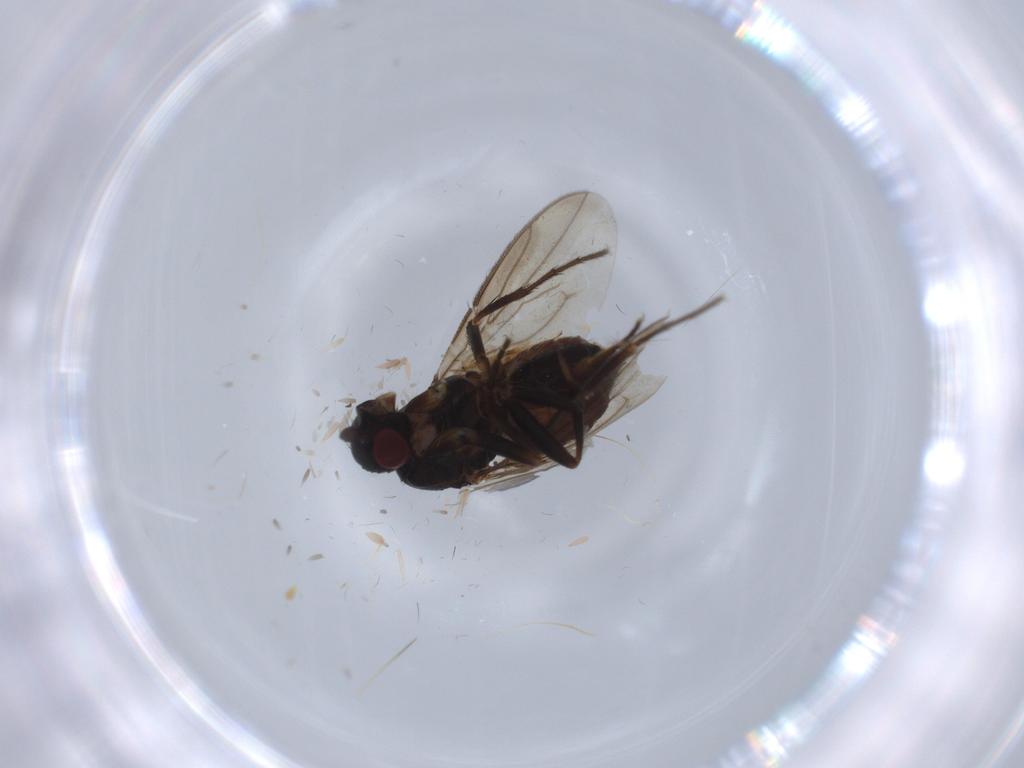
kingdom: Animalia
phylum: Arthropoda
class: Insecta
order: Diptera
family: Sphaeroceridae
